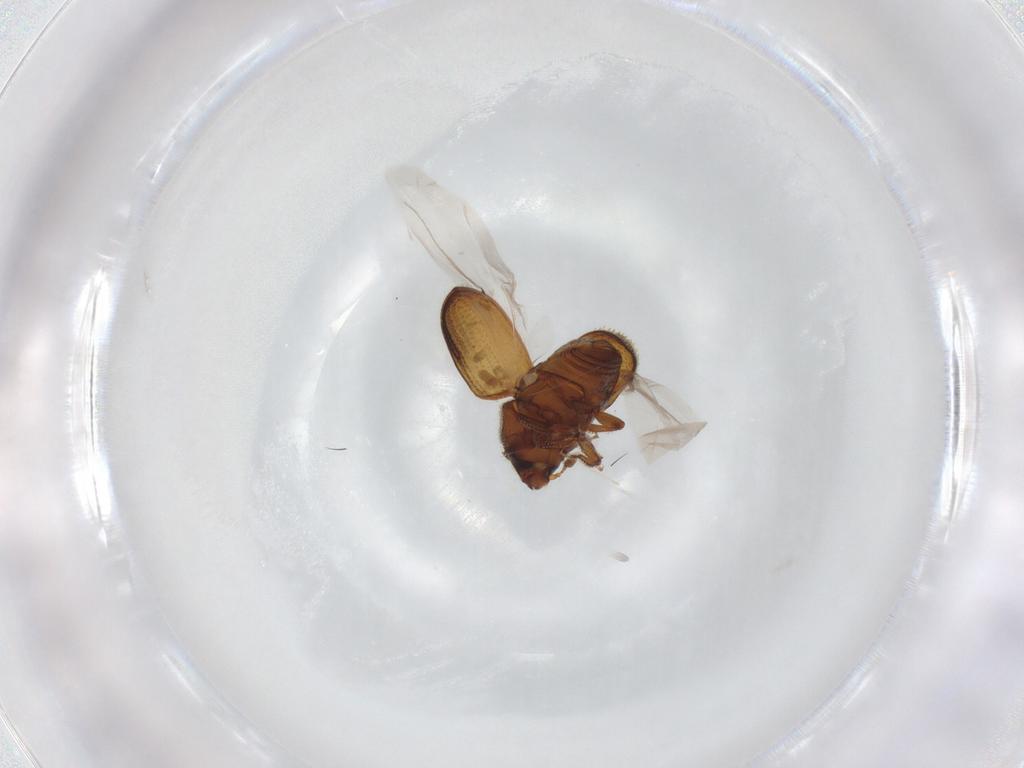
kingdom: Animalia
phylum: Arthropoda
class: Insecta
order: Coleoptera
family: Curculionidae
